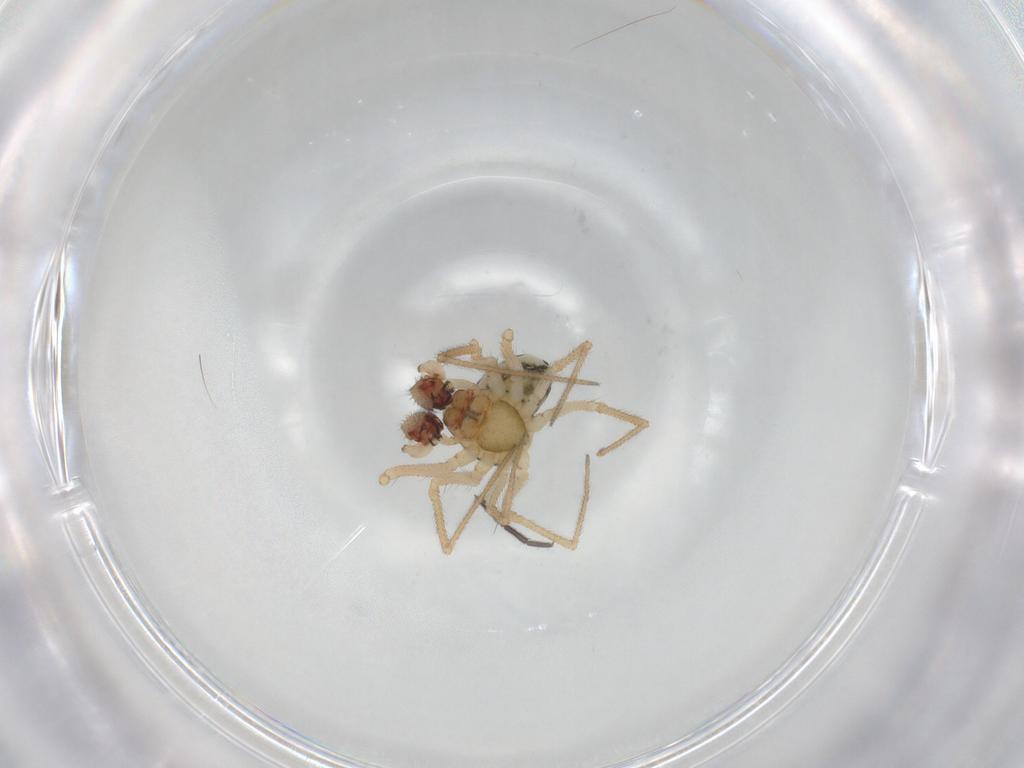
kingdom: Animalia
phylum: Arthropoda
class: Arachnida
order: Araneae
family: Linyphiidae
